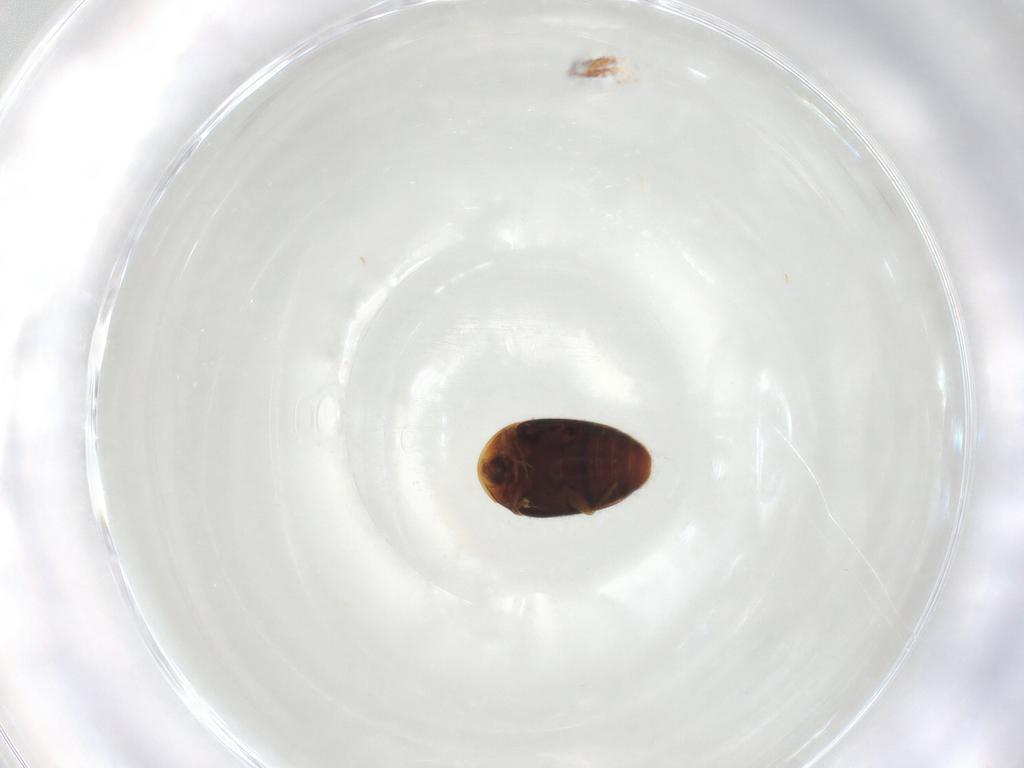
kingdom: Animalia
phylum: Arthropoda
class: Insecta
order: Coleoptera
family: Corylophidae
